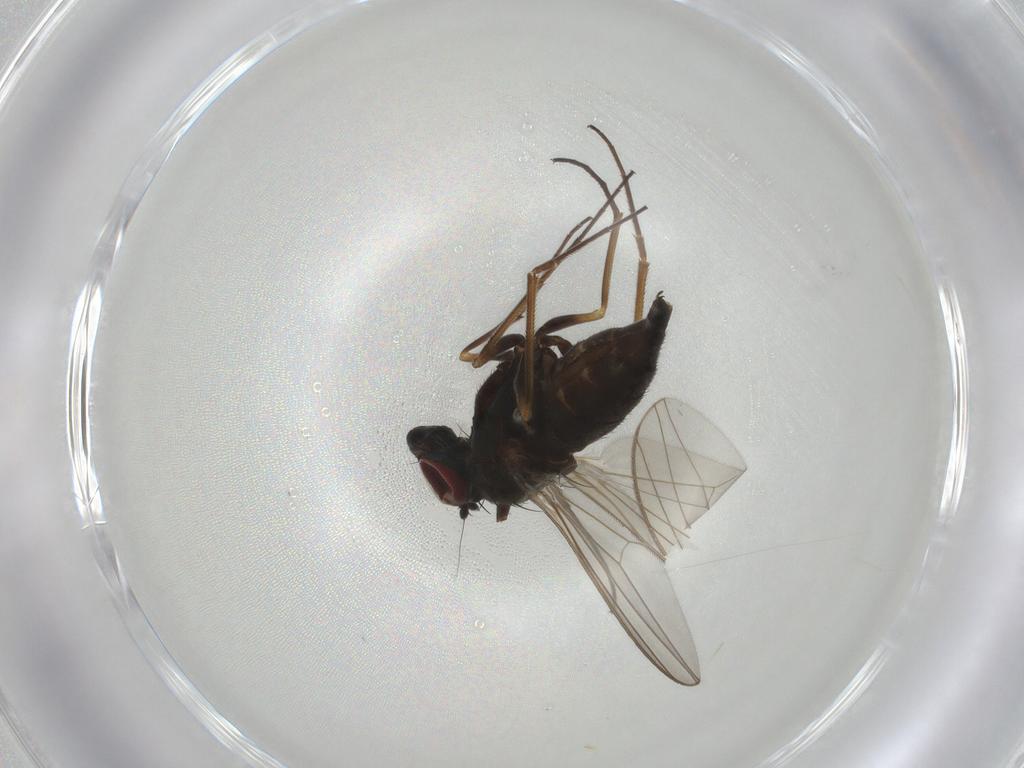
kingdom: Animalia
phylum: Arthropoda
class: Insecta
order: Diptera
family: Dolichopodidae
